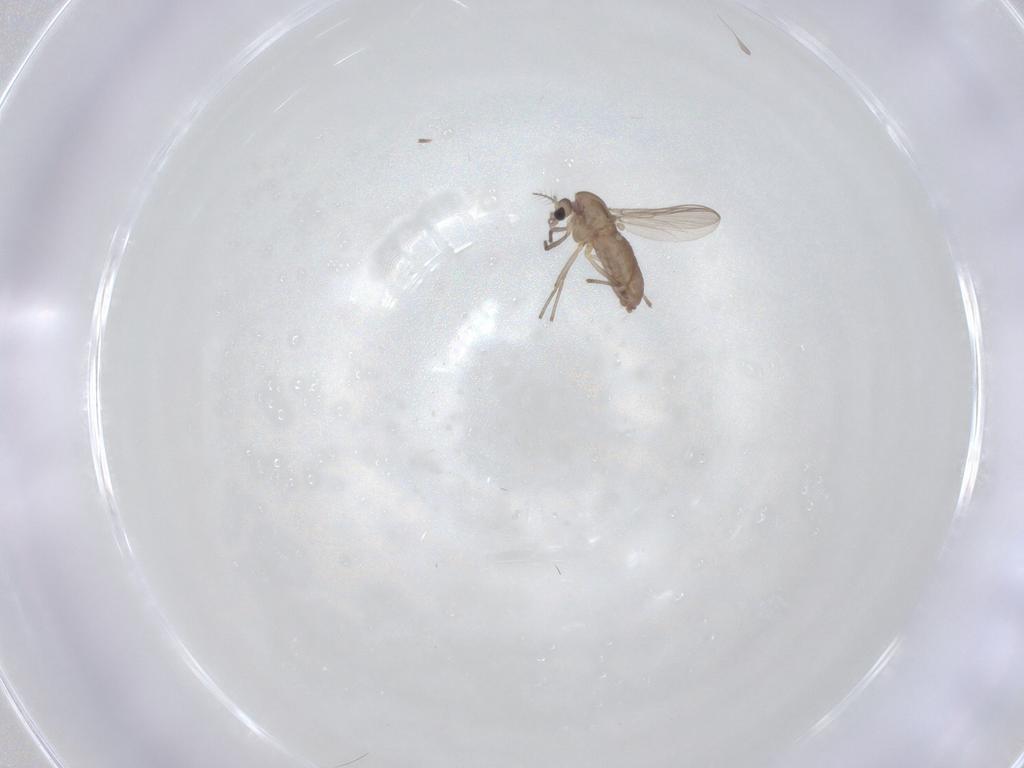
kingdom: Animalia
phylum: Arthropoda
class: Insecta
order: Diptera
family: Chironomidae
